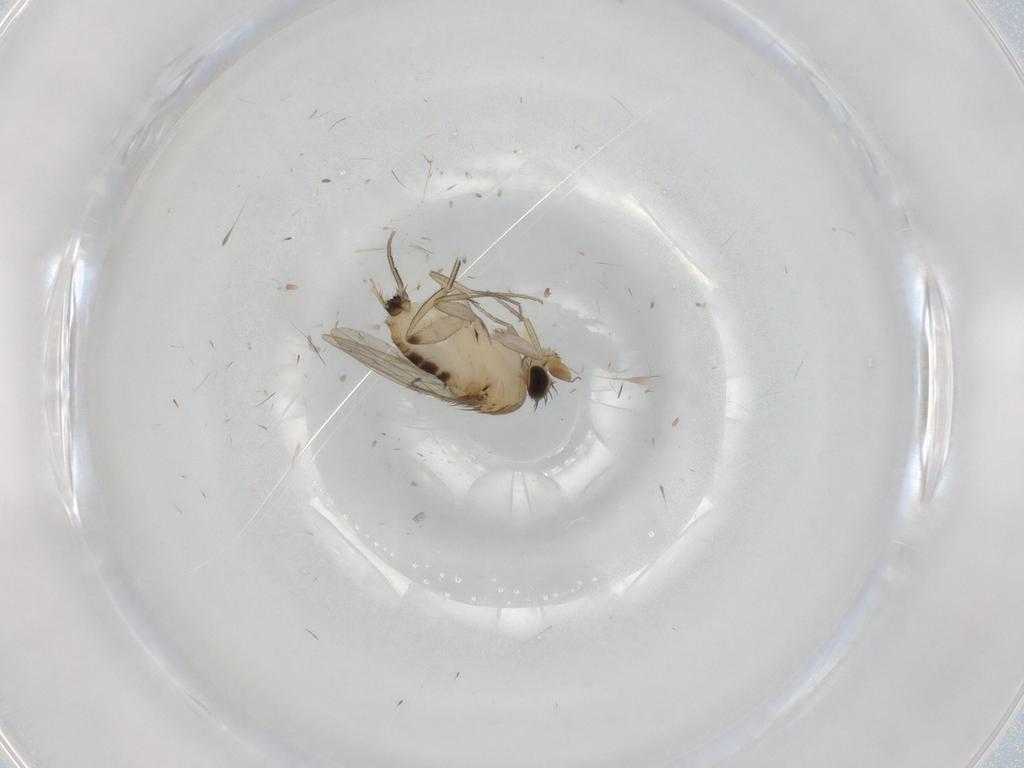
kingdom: Animalia
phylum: Arthropoda
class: Insecta
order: Diptera
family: Phoridae
